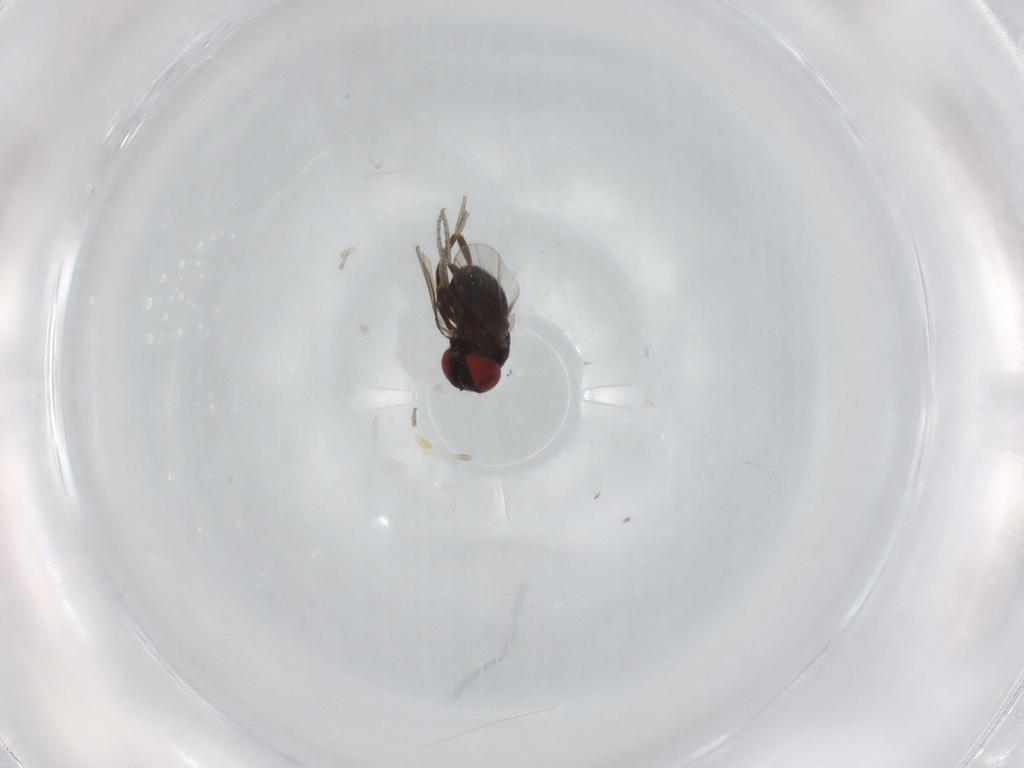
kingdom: Animalia
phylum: Arthropoda
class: Insecta
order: Diptera
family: Cryptochetidae
